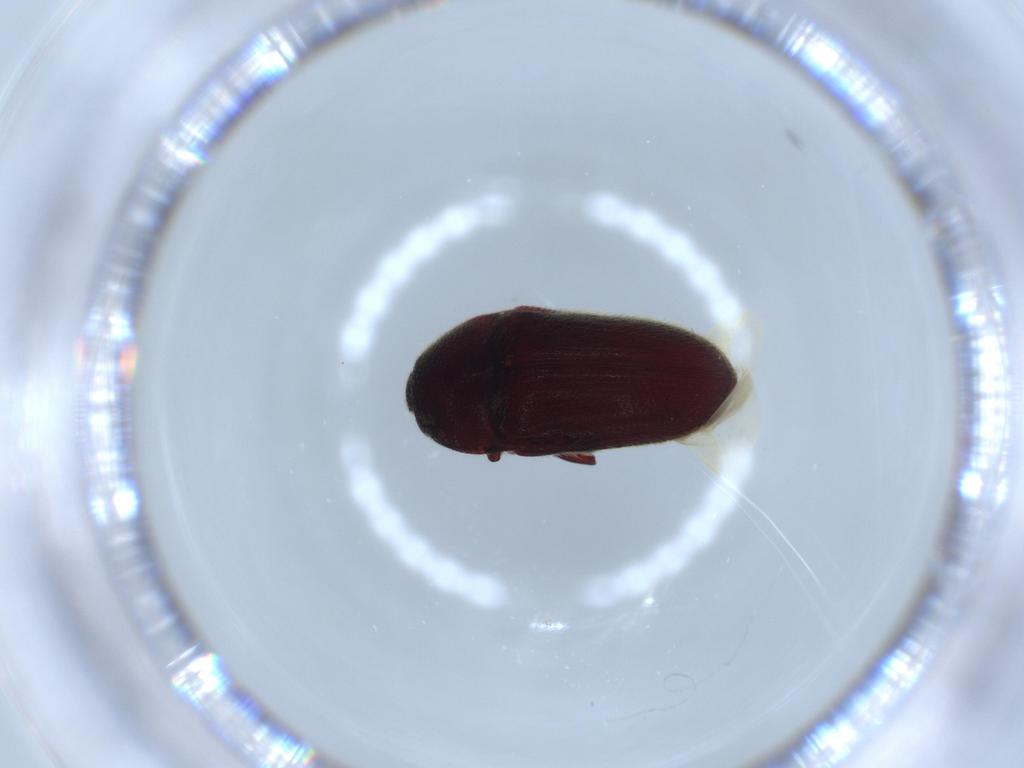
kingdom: Animalia
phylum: Arthropoda
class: Insecta
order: Coleoptera
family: Throscidae
